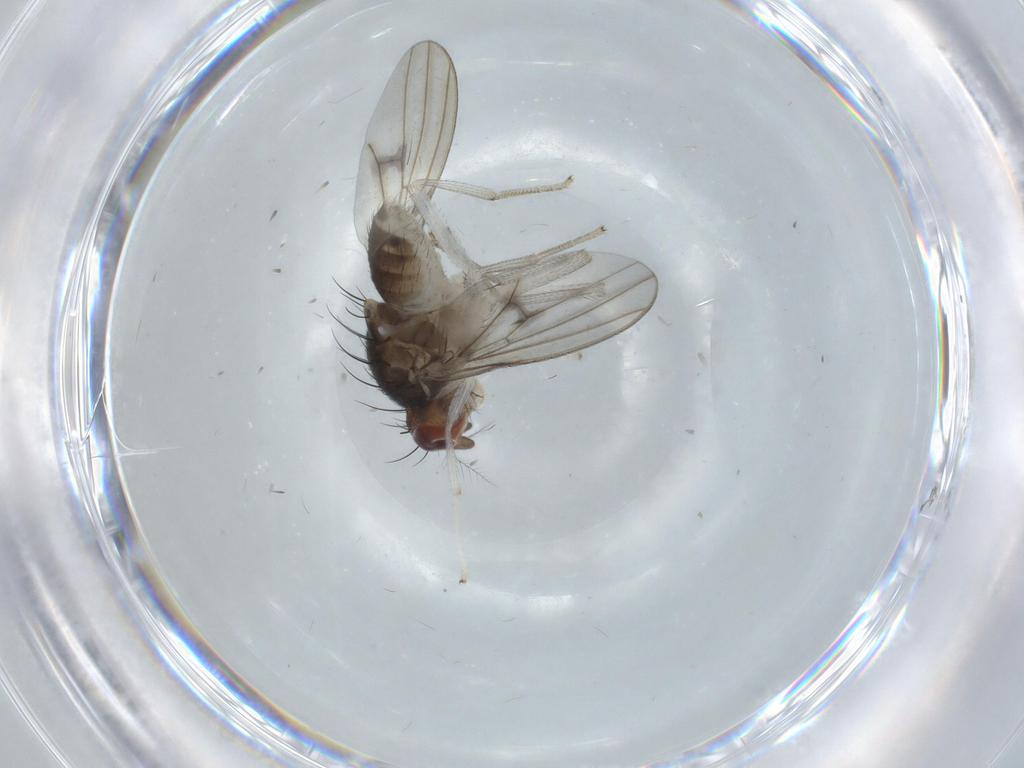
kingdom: Animalia
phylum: Arthropoda
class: Insecta
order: Diptera
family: Lauxaniidae
